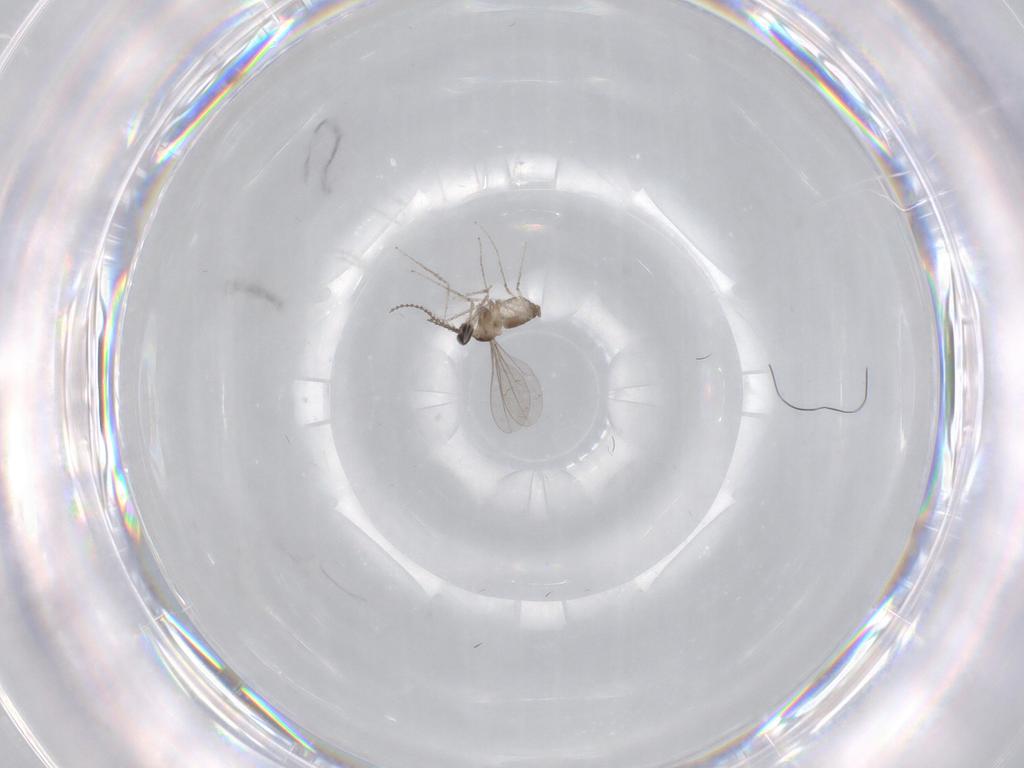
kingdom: Animalia
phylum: Arthropoda
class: Insecta
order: Diptera
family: Cecidomyiidae
